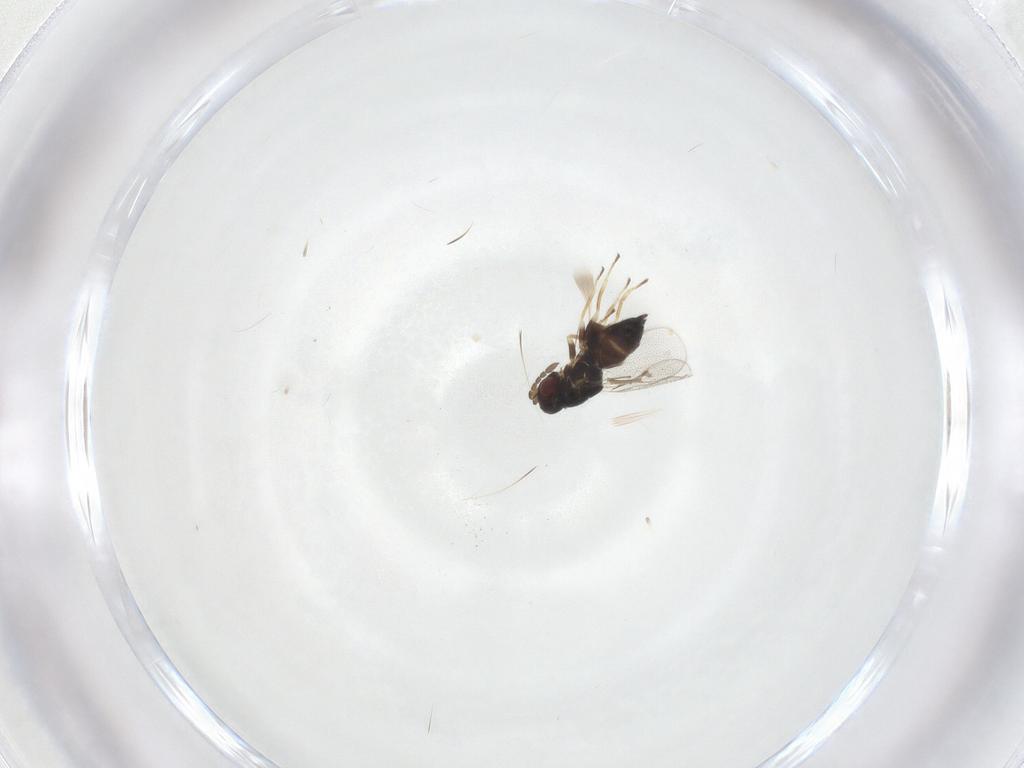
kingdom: Animalia
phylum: Arthropoda
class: Insecta
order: Hymenoptera
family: Eulophidae
